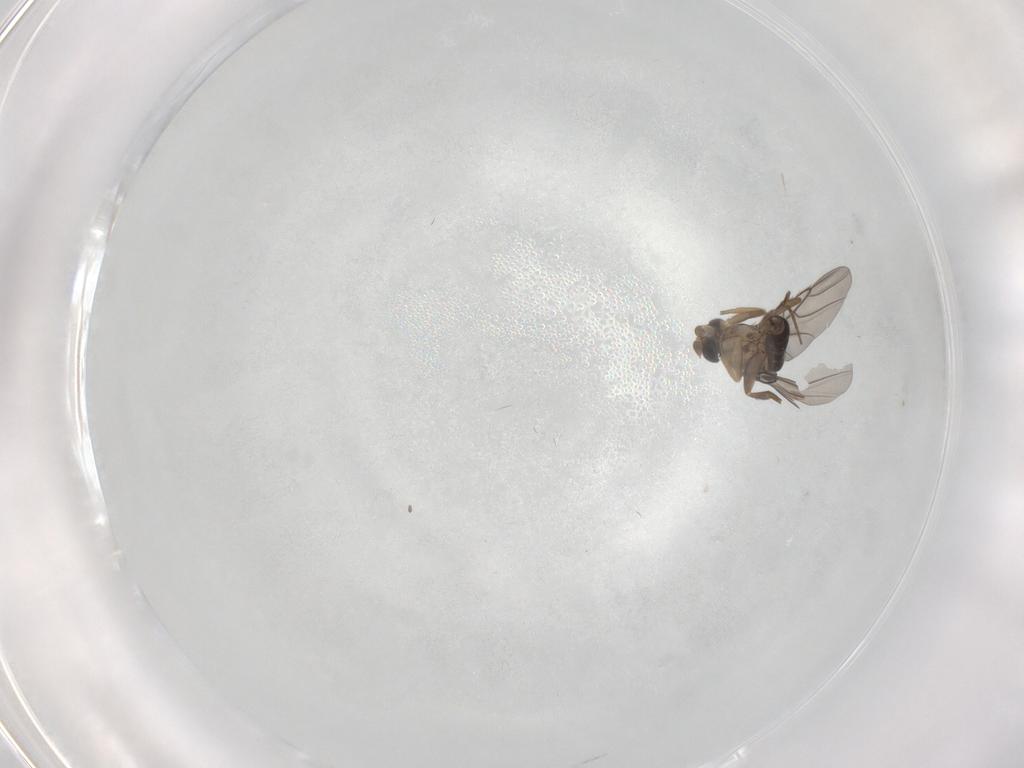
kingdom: Animalia
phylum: Arthropoda
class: Insecta
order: Diptera
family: Phoridae
